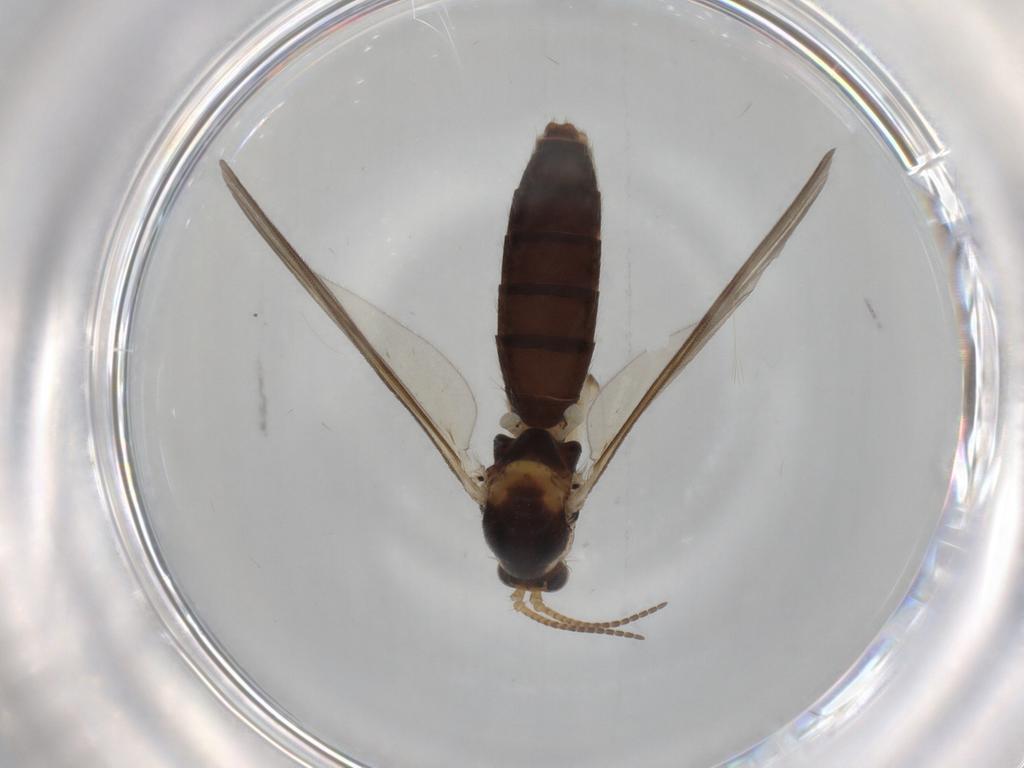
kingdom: Animalia
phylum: Arthropoda
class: Insecta
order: Diptera
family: Mycetophilidae
